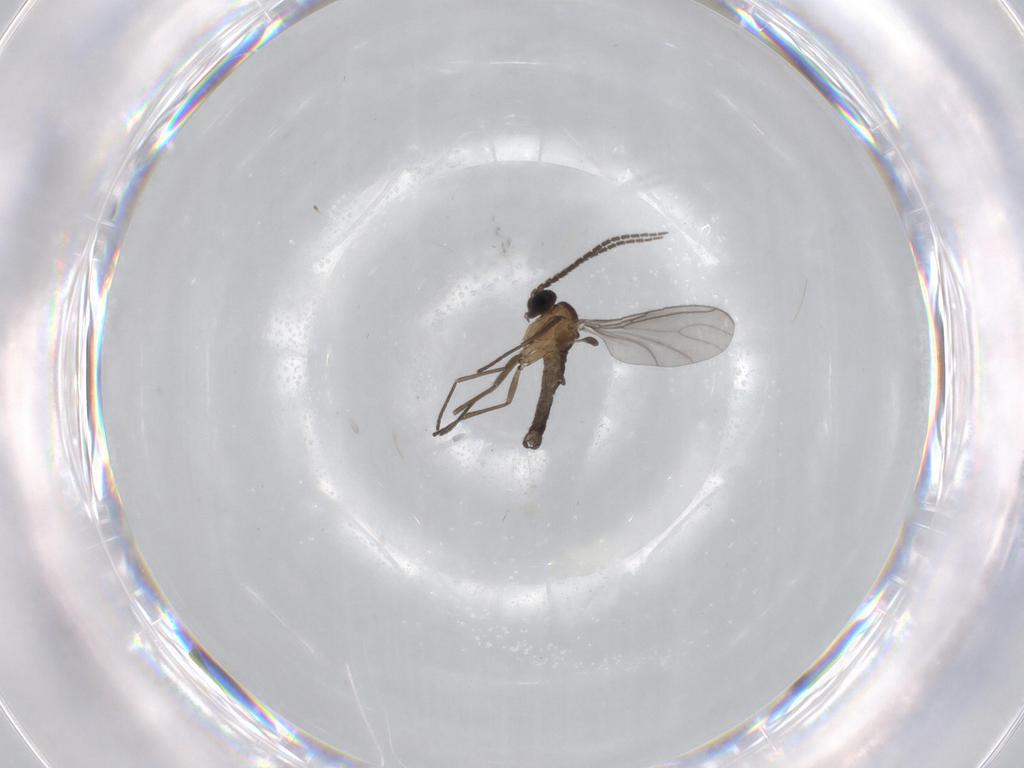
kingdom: Animalia
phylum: Arthropoda
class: Insecta
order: Diptera
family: Sciaridae
